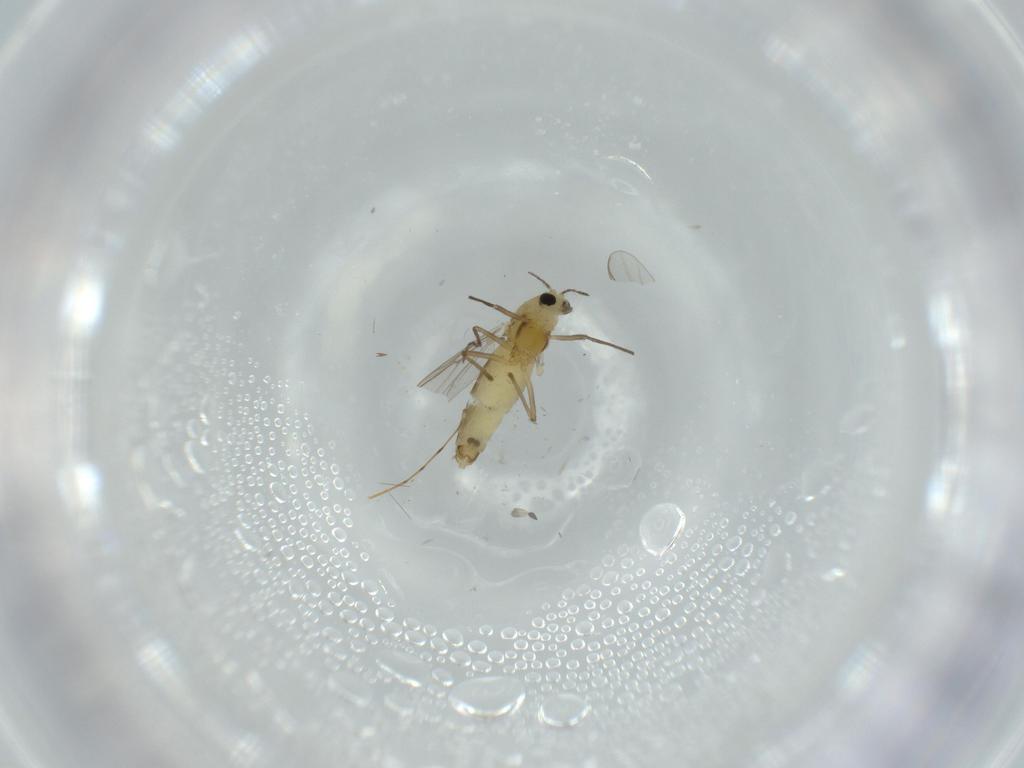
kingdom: Animalia
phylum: Arthropoda
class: Insecta
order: Diptera
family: Chironomidae
